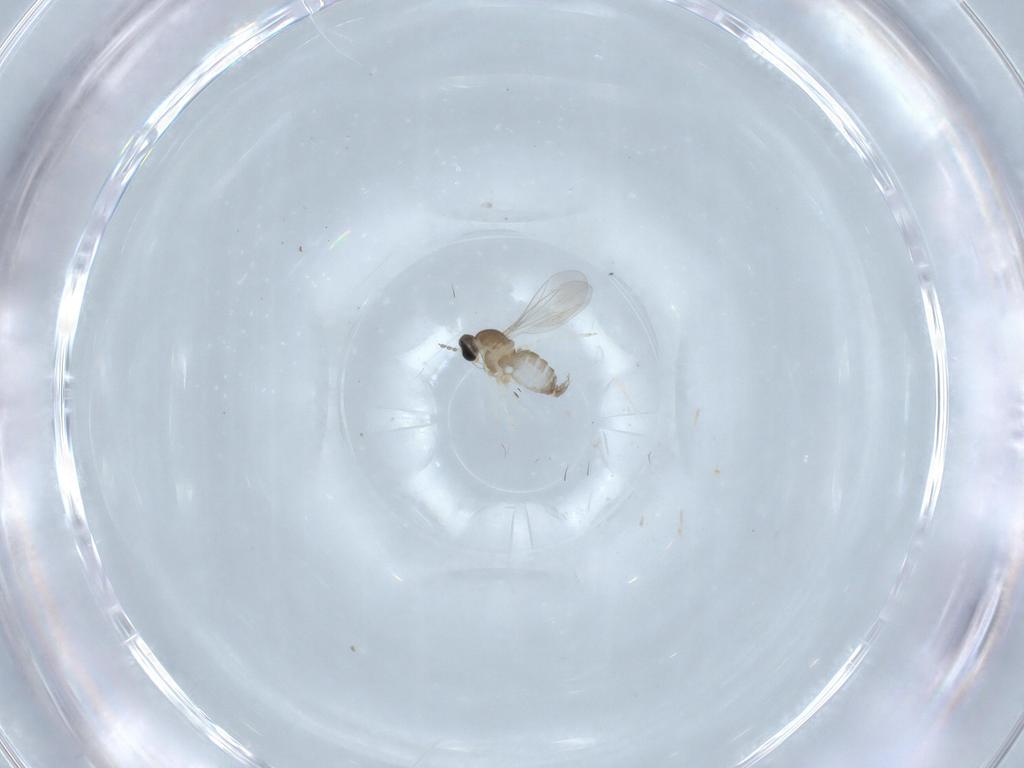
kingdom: Animalia
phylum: Arthropoda
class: Insecta
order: Diptera
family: Cecidomyiidae
